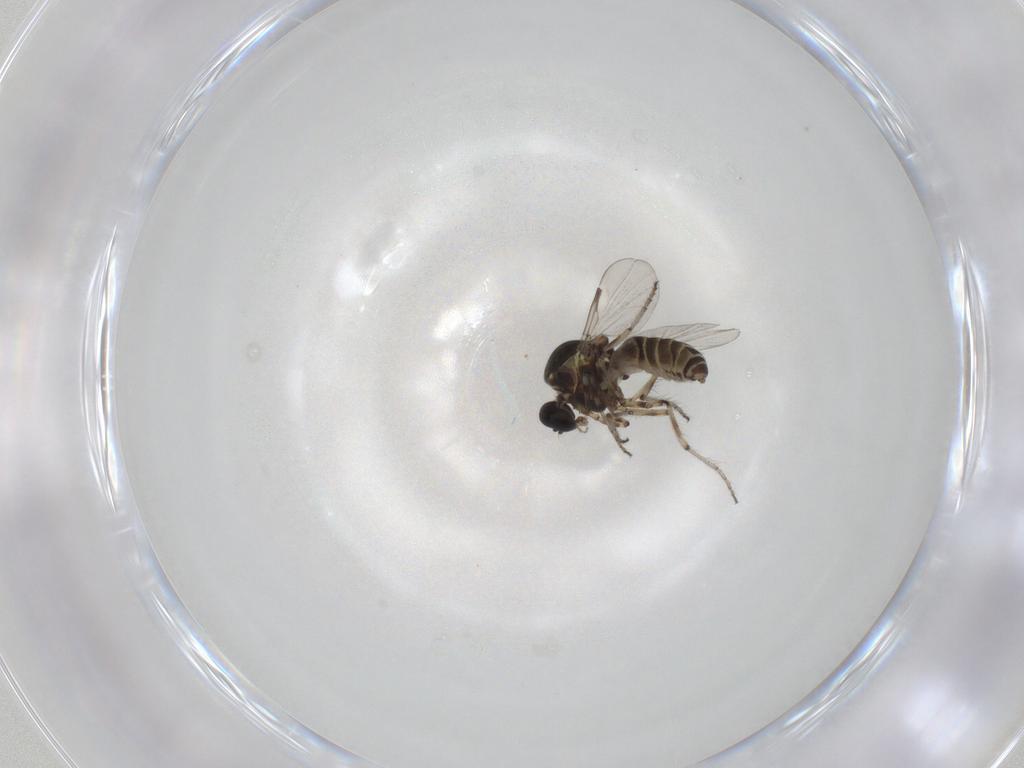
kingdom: Animalia
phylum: Arthropoda
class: Insecta
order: Diptera
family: Ceratopogonidae
